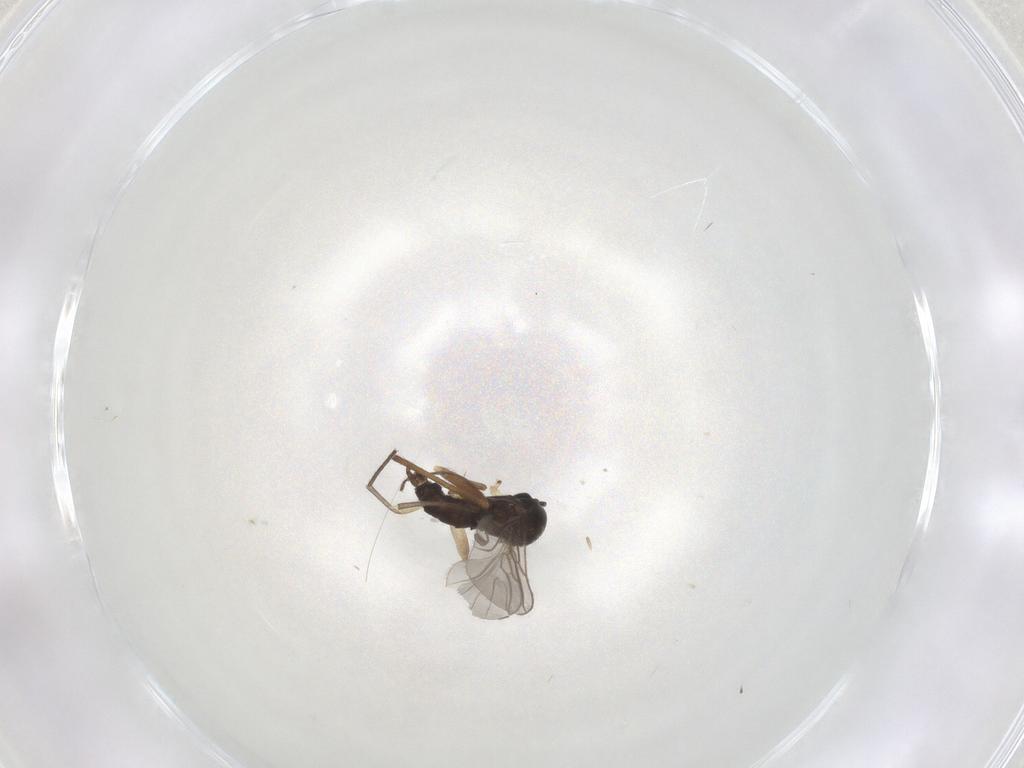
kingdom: Animalia
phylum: Arthropoda
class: Insecta
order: Diptera
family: Sciaridae
